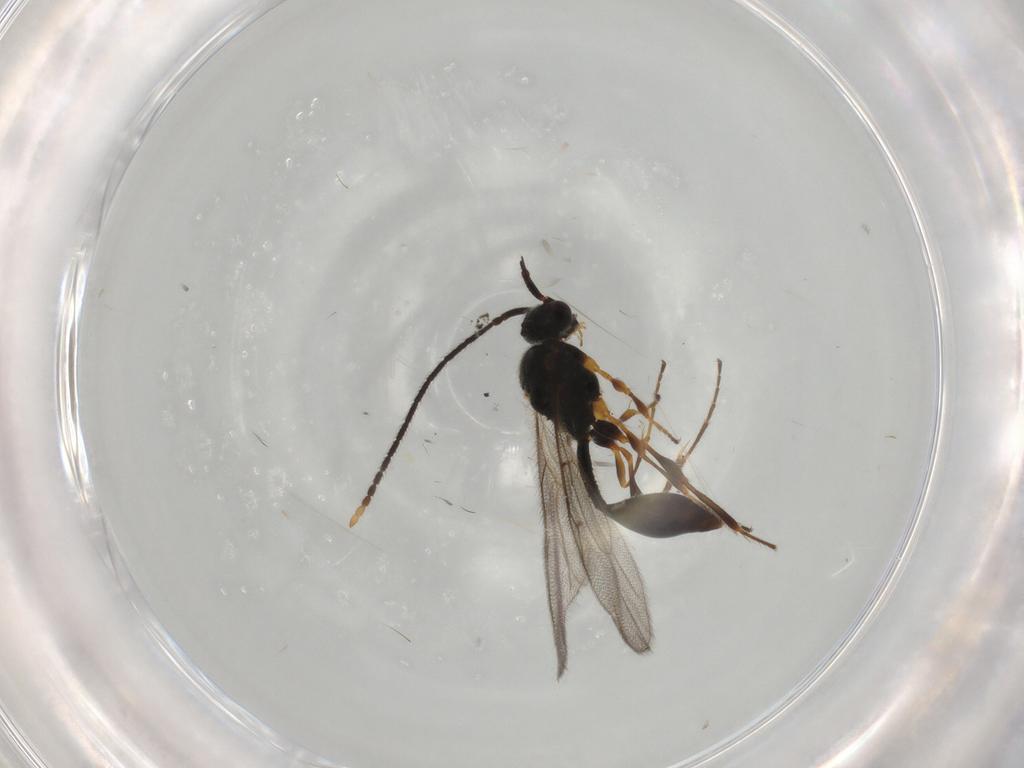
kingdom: Animalia
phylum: Arthropoda
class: Insecta
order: Hymenoptera
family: Diapriidae
